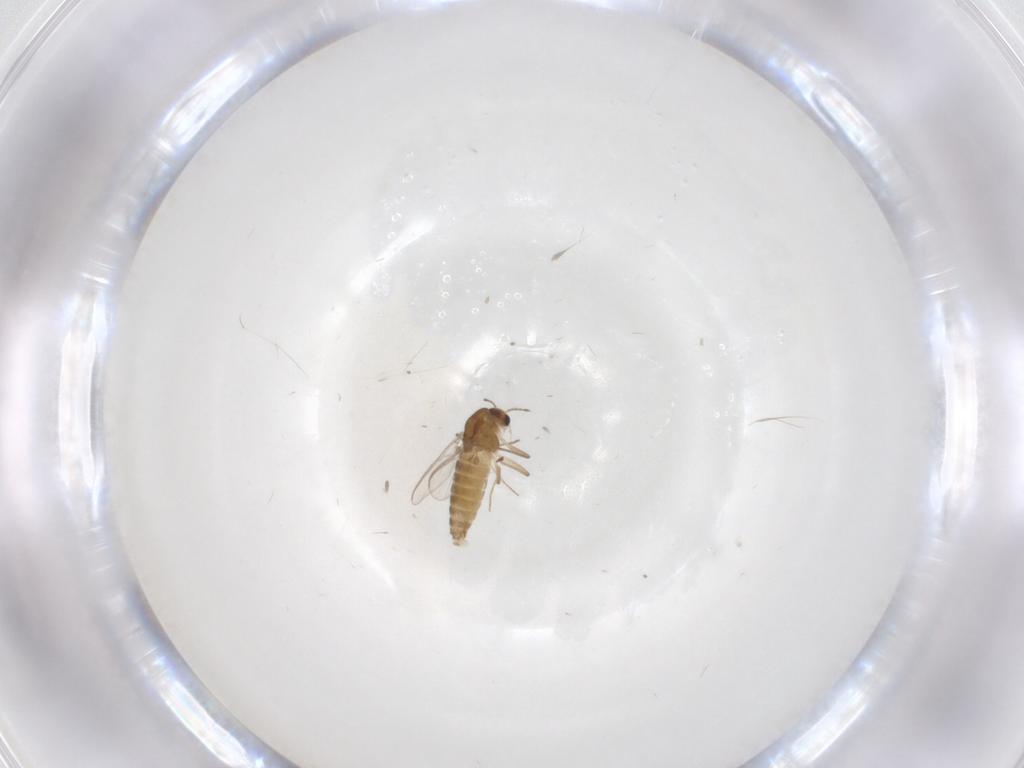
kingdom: Animalia
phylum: Arthropoda
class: Insecta
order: Diptera
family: Chironomidae
